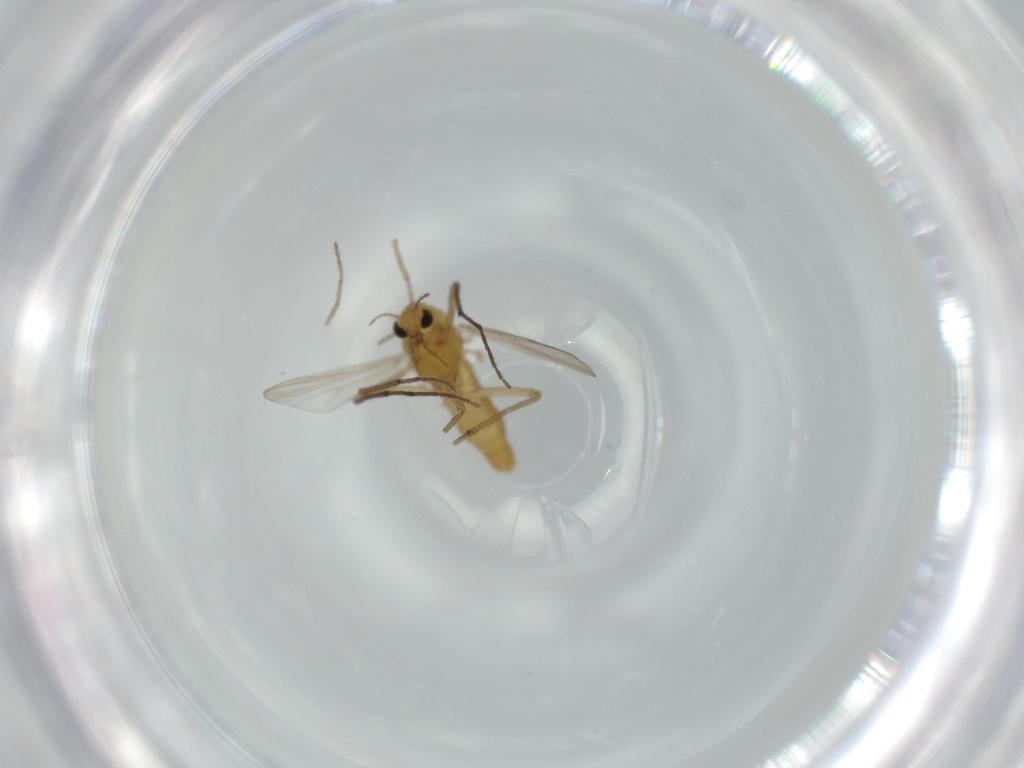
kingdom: Animalia
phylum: Arthropoda
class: Insecta
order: Diptera
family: Chironomidae
